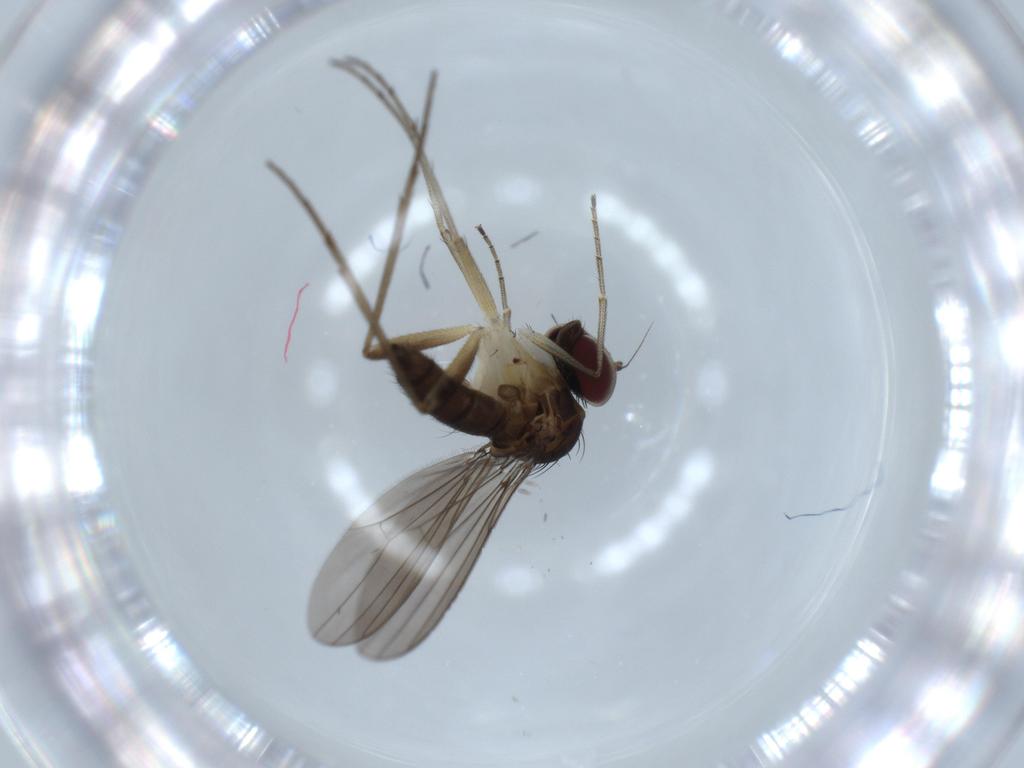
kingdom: Animalia
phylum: Arthropoda
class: Insecta
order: Diptera
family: Dolichopodidae
